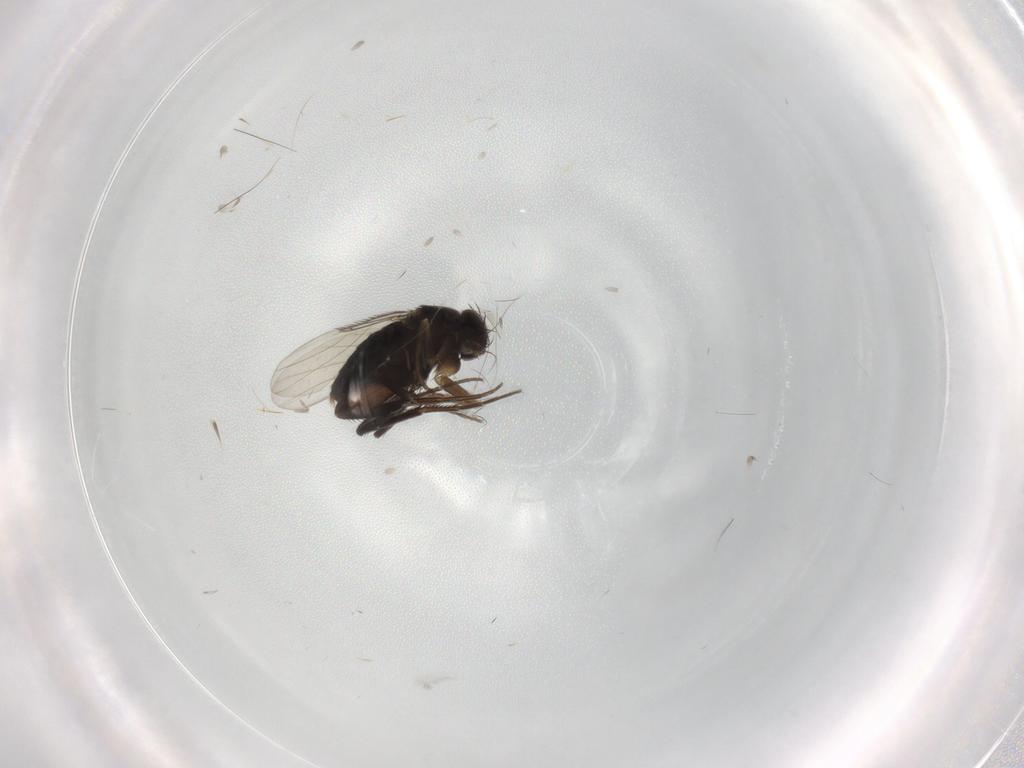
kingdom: Animalia
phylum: Arthropoda
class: Insecta
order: Diptera
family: Phoridae
